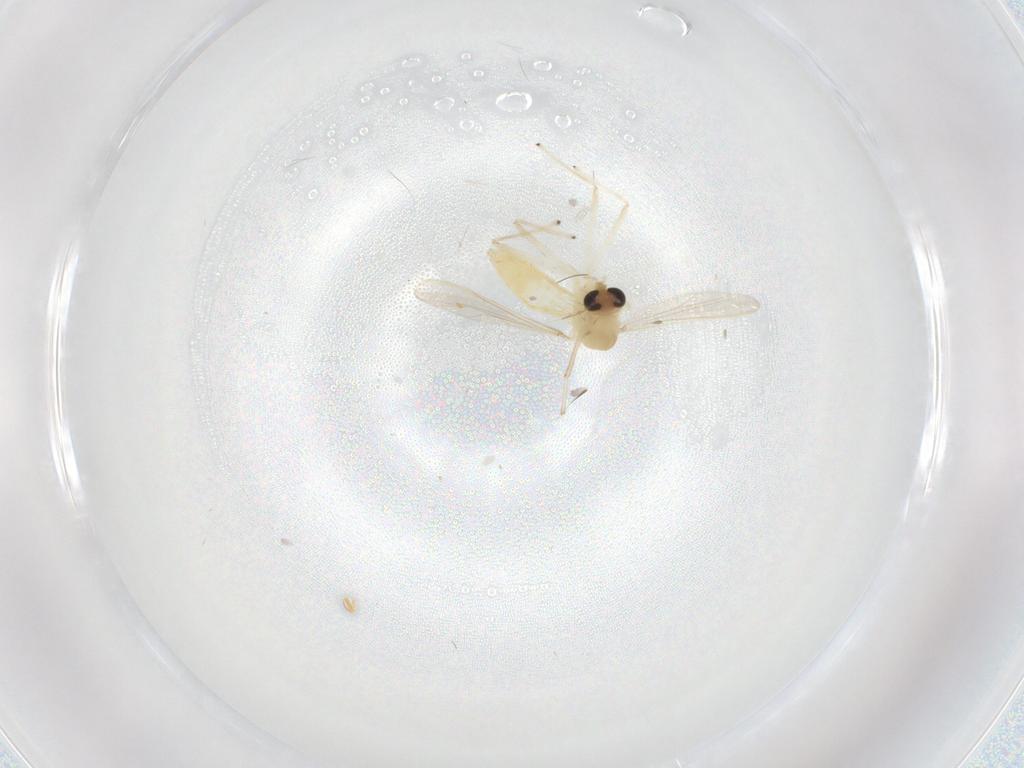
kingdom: Animalia
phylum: Arthropoda
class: Insecta
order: Diptera
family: Chironomidae
